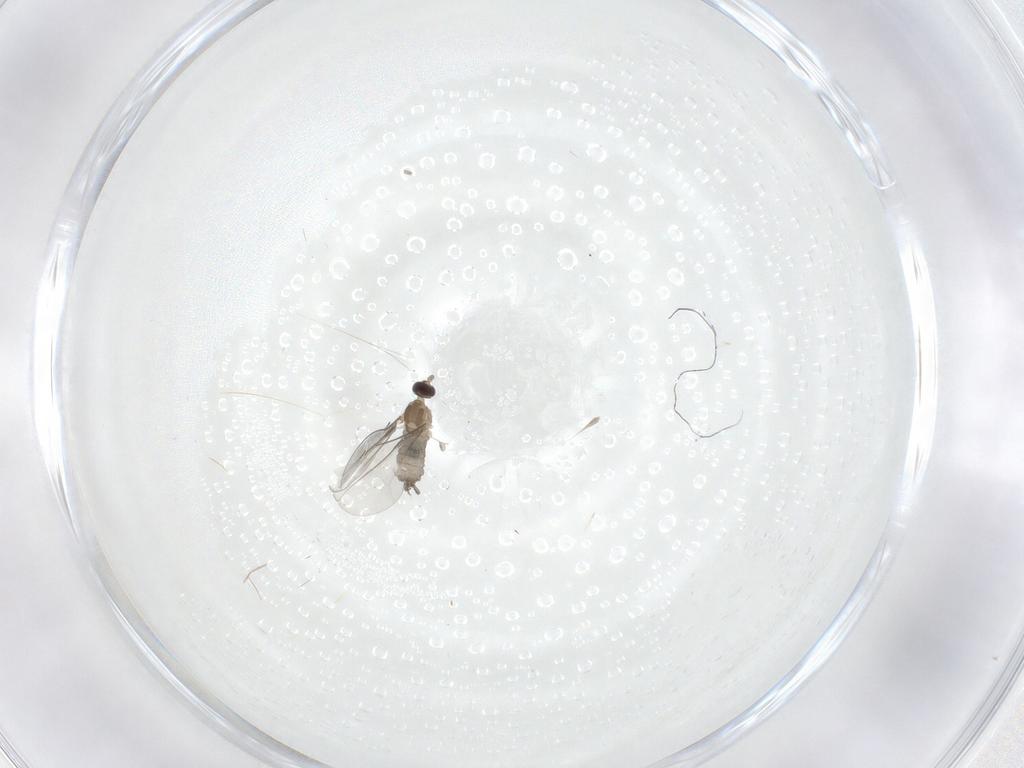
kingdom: Animalia
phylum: Arthropoda
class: Insecta
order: Diptera
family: Cecidomyiidae
